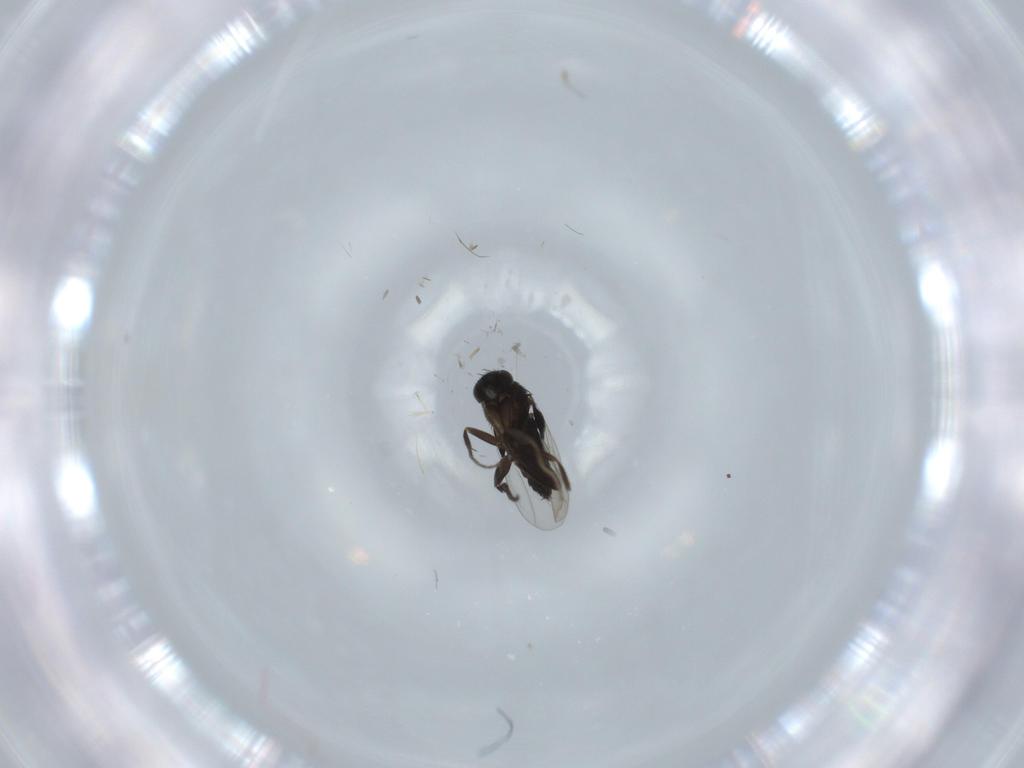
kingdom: Animalia
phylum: Arthropoda
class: Insecta
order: Diptera
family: Phoridae
